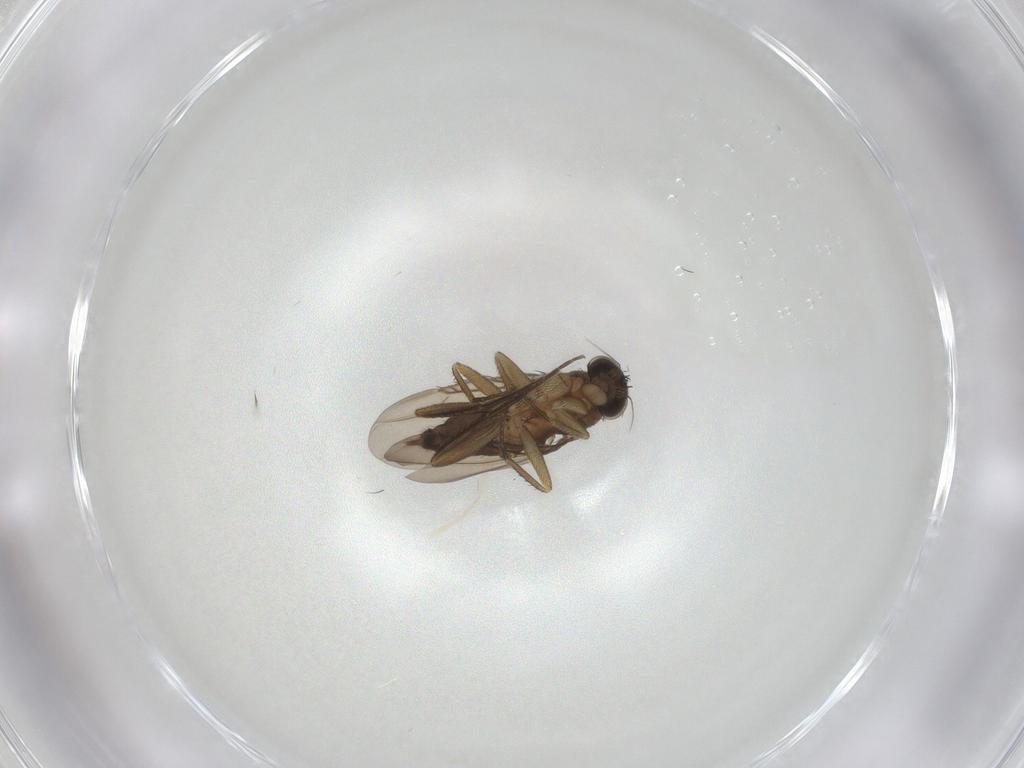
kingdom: Animalia
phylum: Arthropoda
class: Insecta
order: Diptera
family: Phoridae
